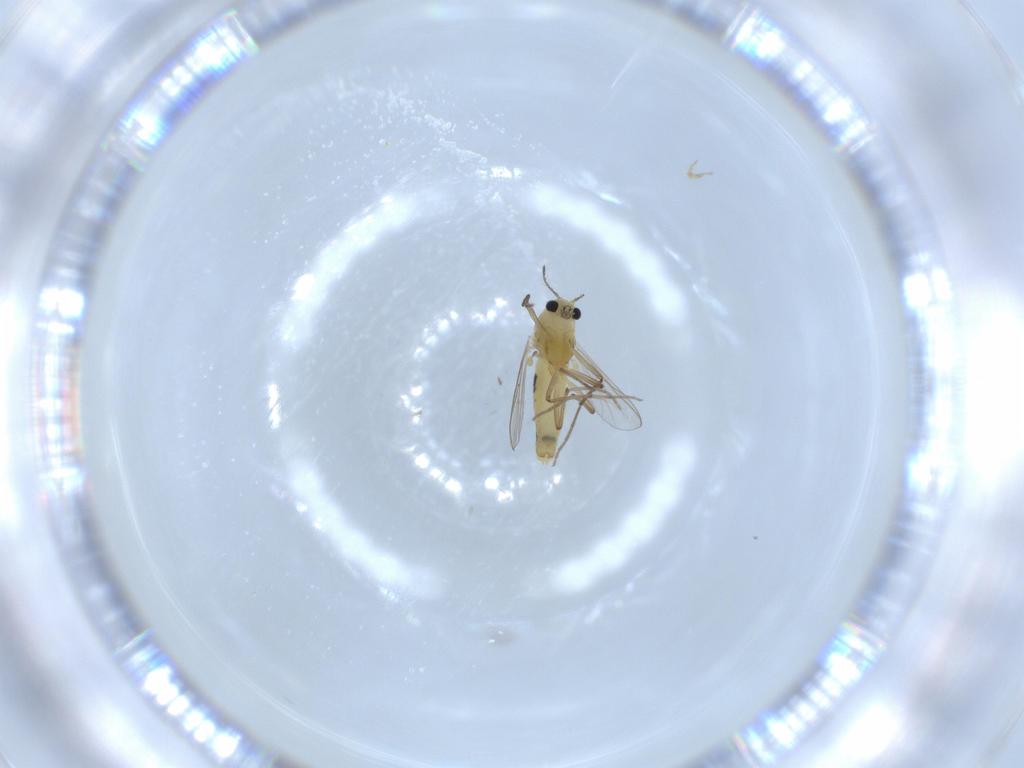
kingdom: Animalia
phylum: Arthropoda
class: Insecta
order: Diptera
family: Chironomidae
